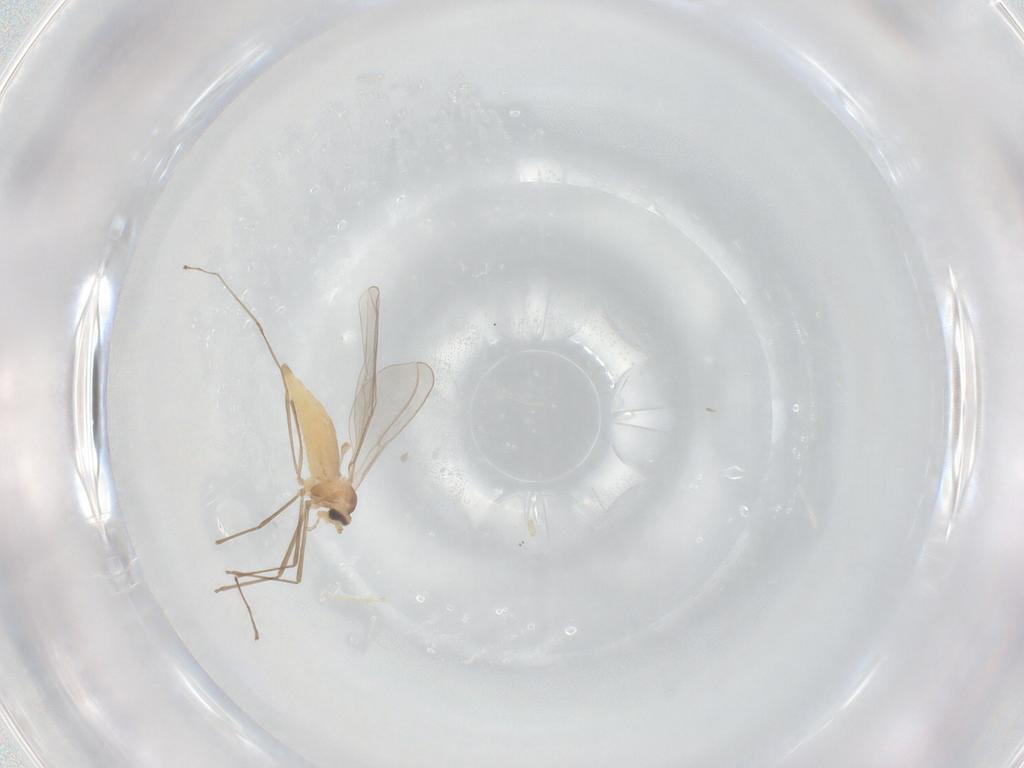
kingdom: Animalia
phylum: Arthropoda
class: Insecta
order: Diptera
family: Cecidomyiidae
